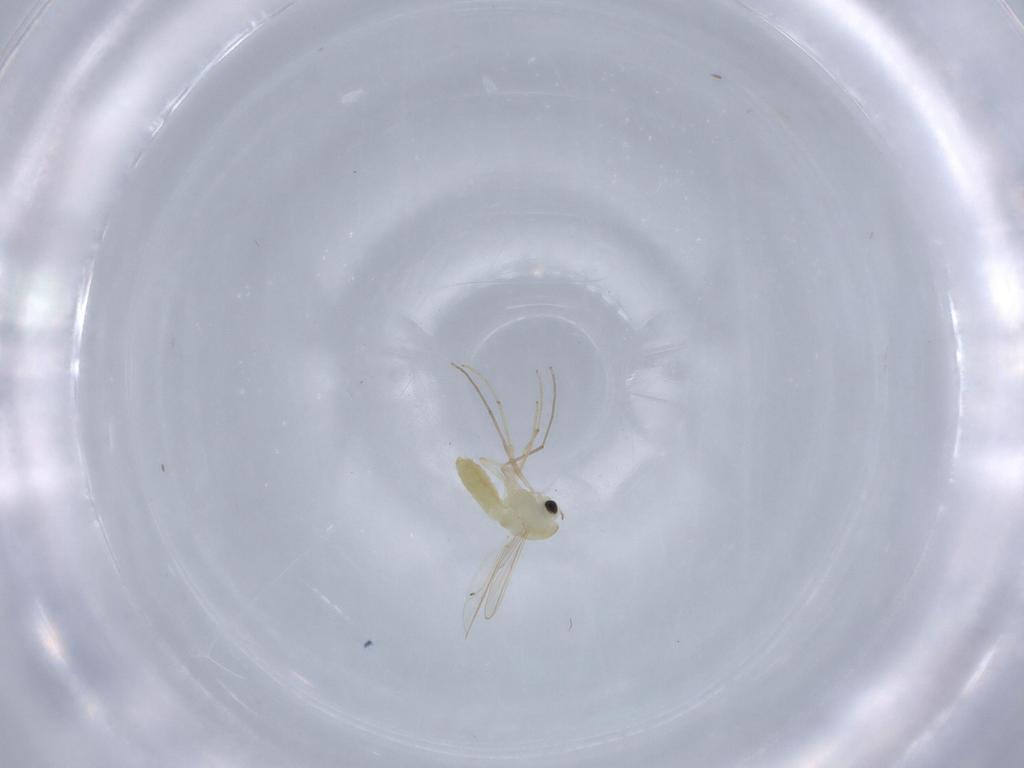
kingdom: Animalia
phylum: Arthropoda
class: Insecta
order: Diptera
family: Chironomidae
